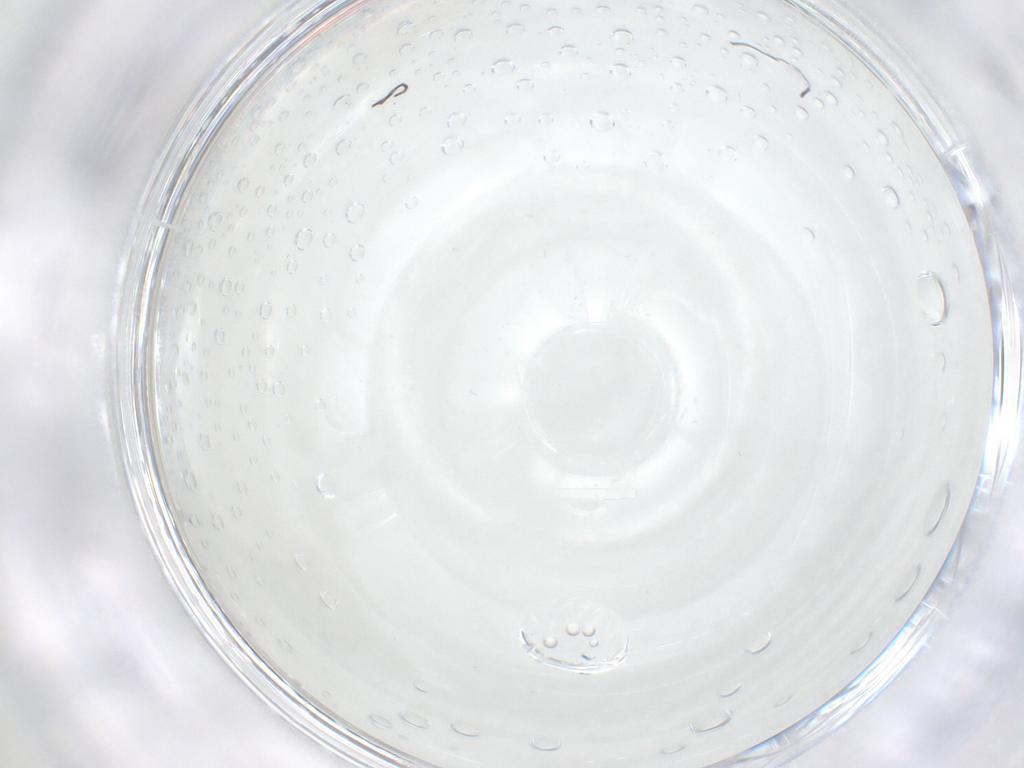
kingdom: Animalia
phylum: Arthropoda
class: Insecta
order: Diptera
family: Cecidomyiidae
